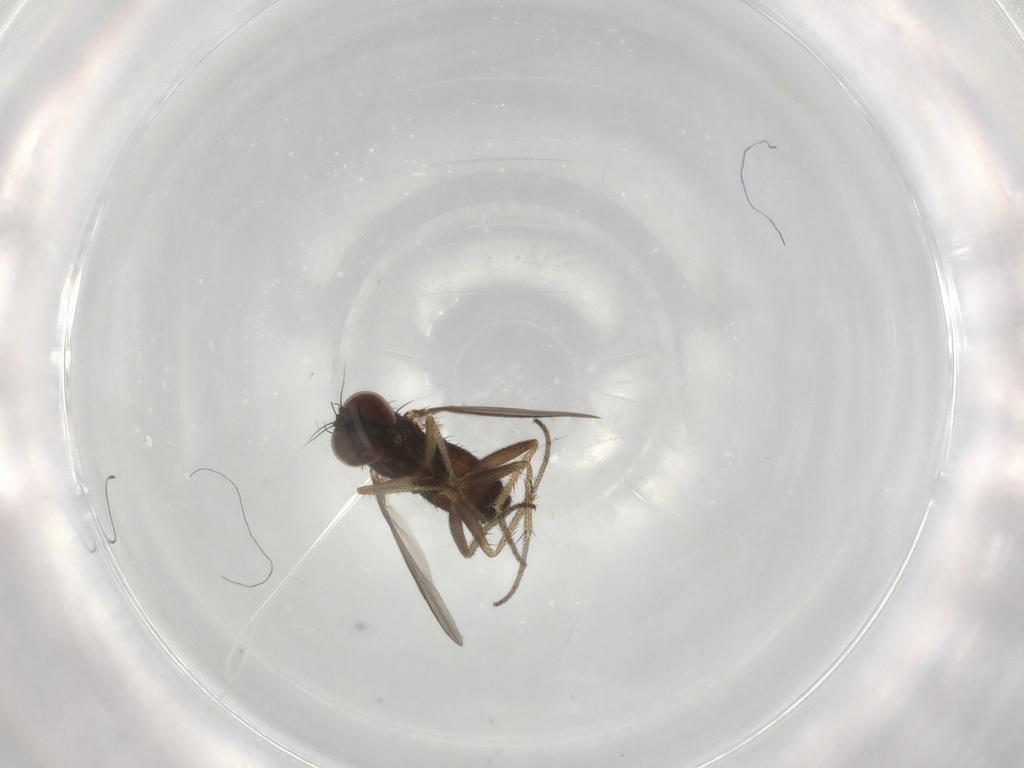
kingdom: Animalia
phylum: Arthropoda
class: Insecta
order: Diptera
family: Dolichopodidae
